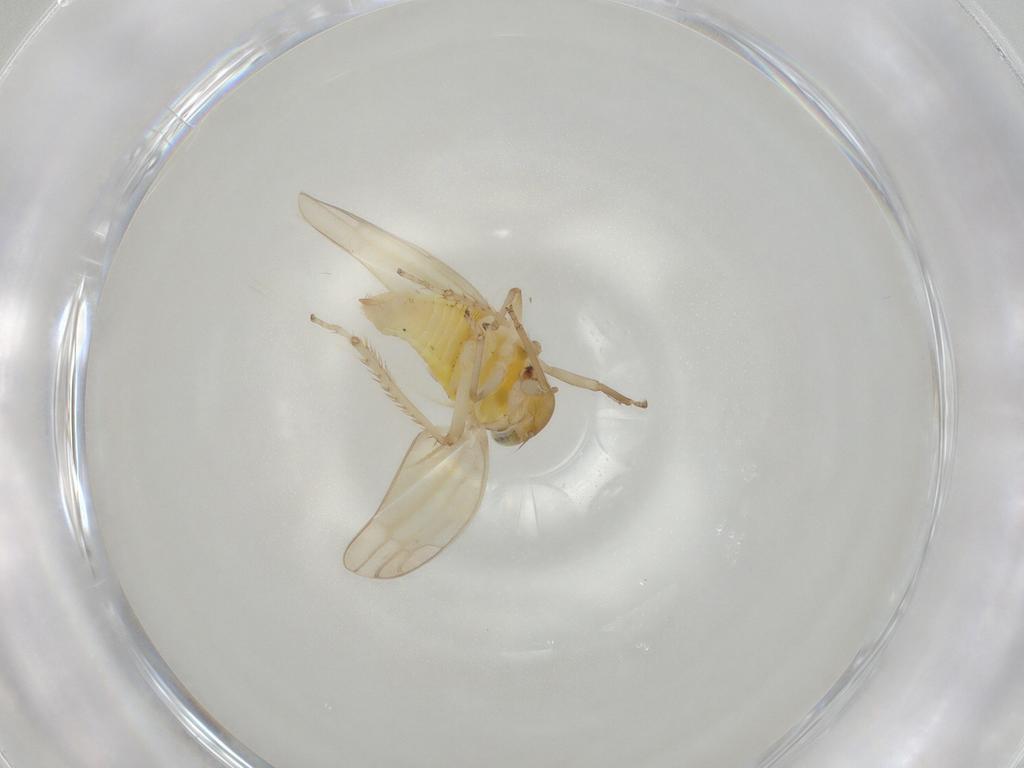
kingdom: Animalia
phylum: Arthropoda
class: Insecta
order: Hemiptera
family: Cicadellidae
